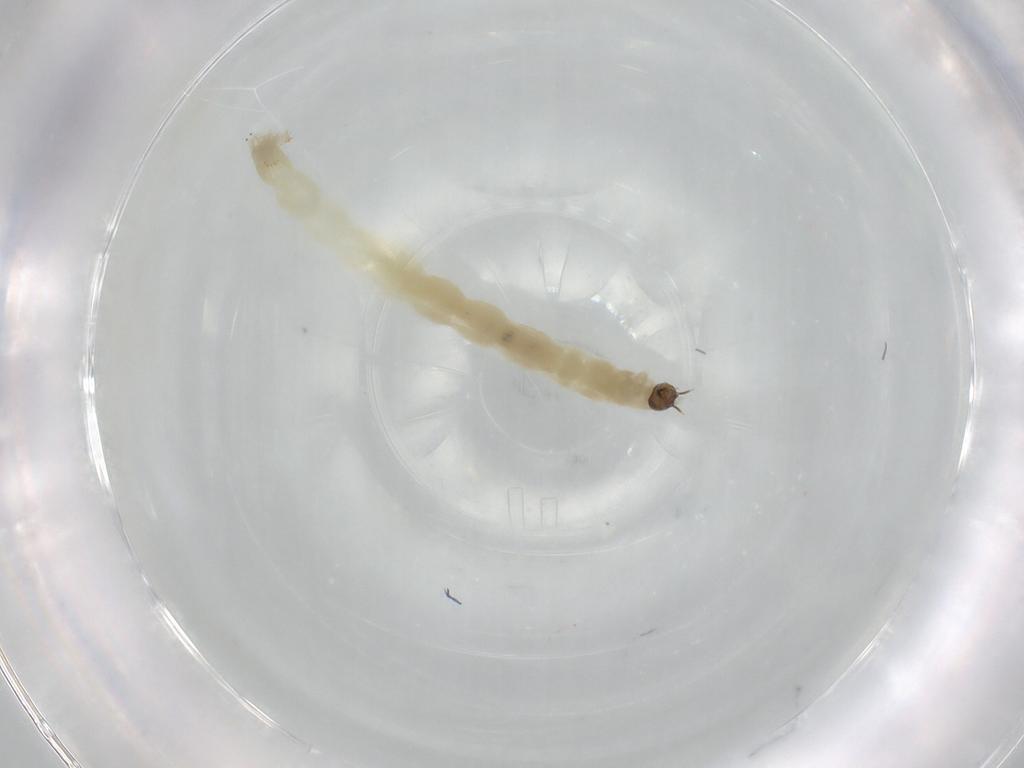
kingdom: Animalia
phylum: Arthropoda
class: Insecta
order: Diptera
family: Chironomidae
